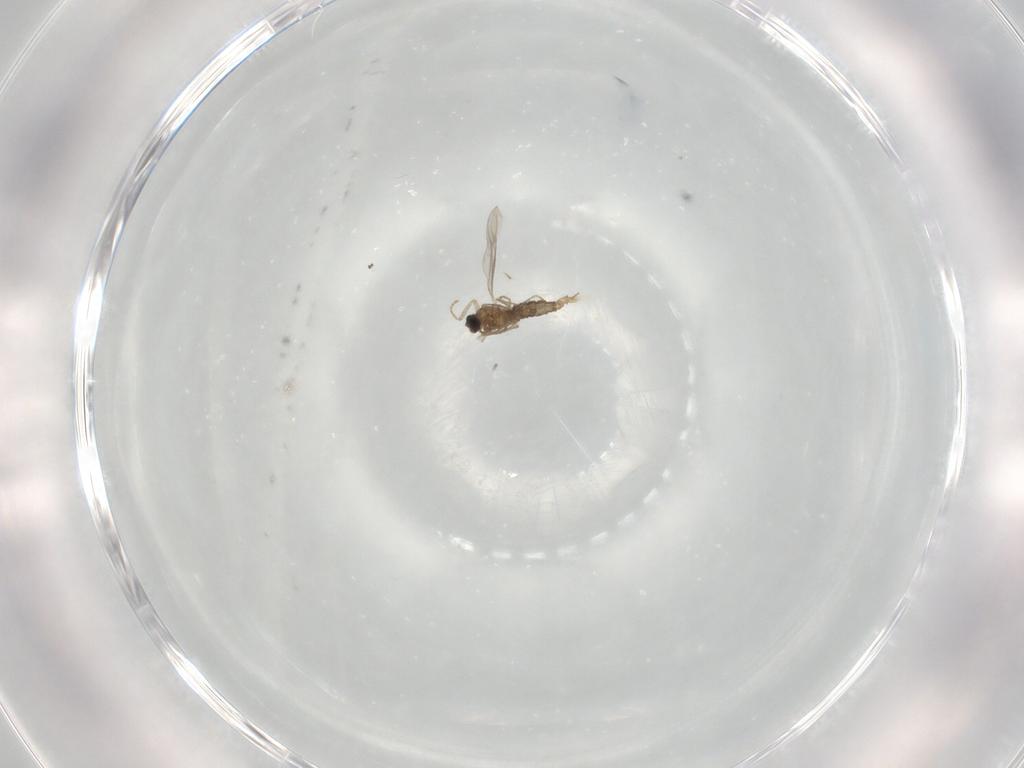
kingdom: Animalia
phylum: Arthropoda
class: Insecta
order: Diptera
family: Cecidomyiidae
